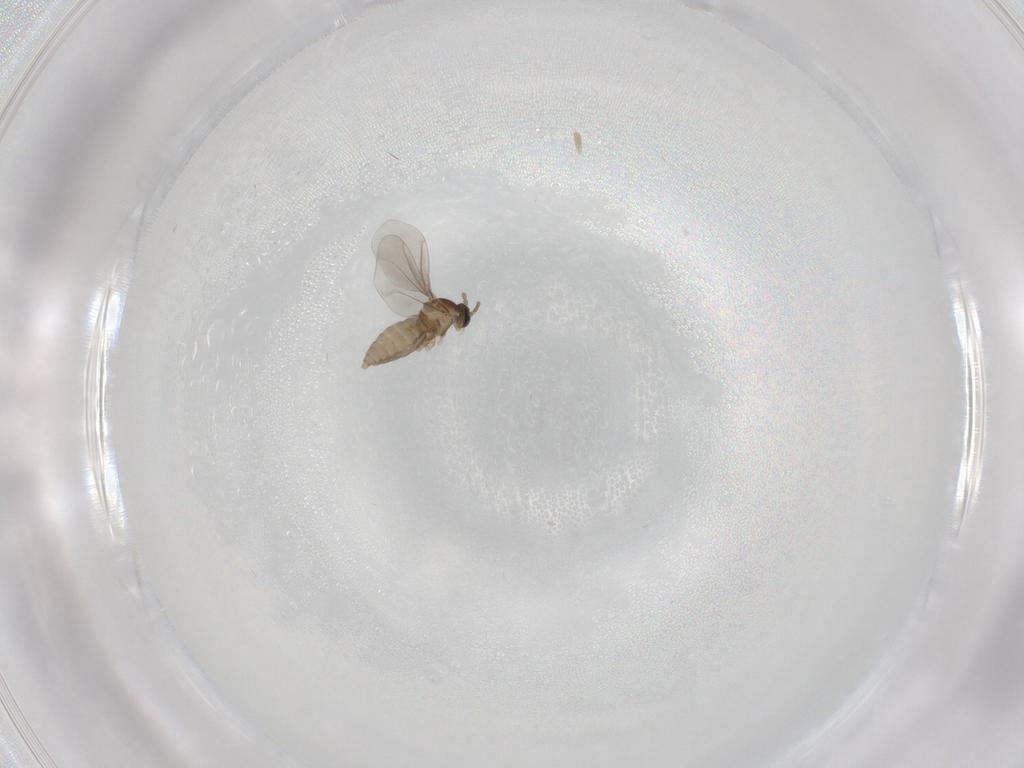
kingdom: Animalia
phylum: Arthropoda
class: Insecta
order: Diptera
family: Cecidomyiidae
